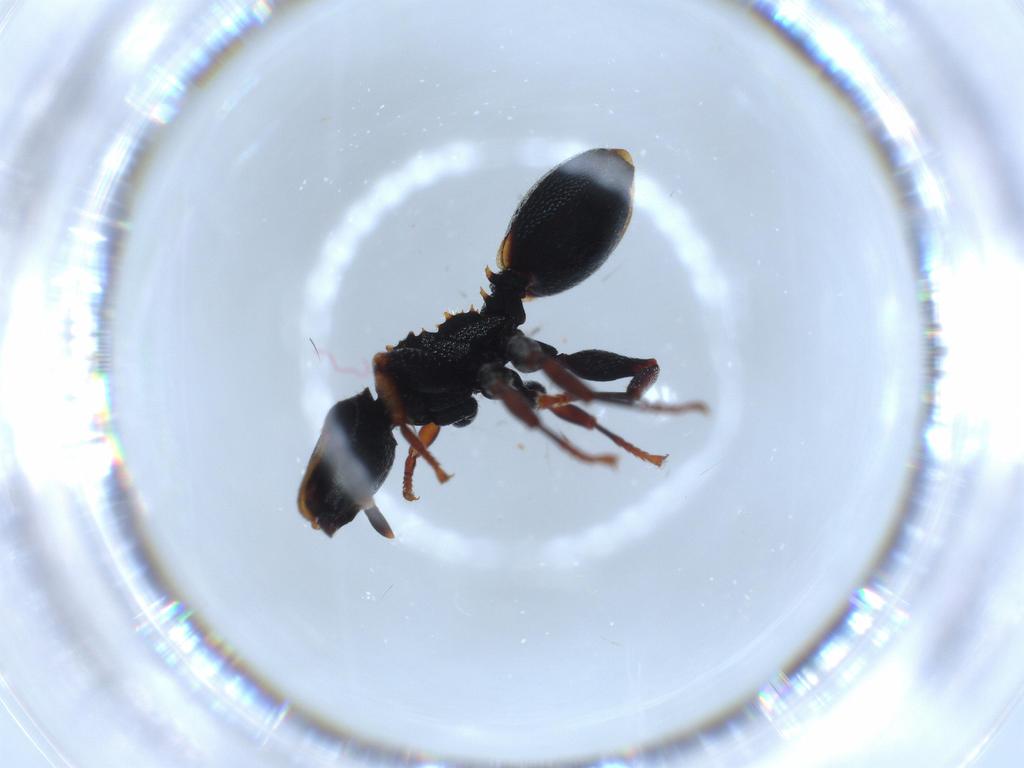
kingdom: Animalia
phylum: Arthropoda
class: Insecta
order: Hymenoptera
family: Formicidae
